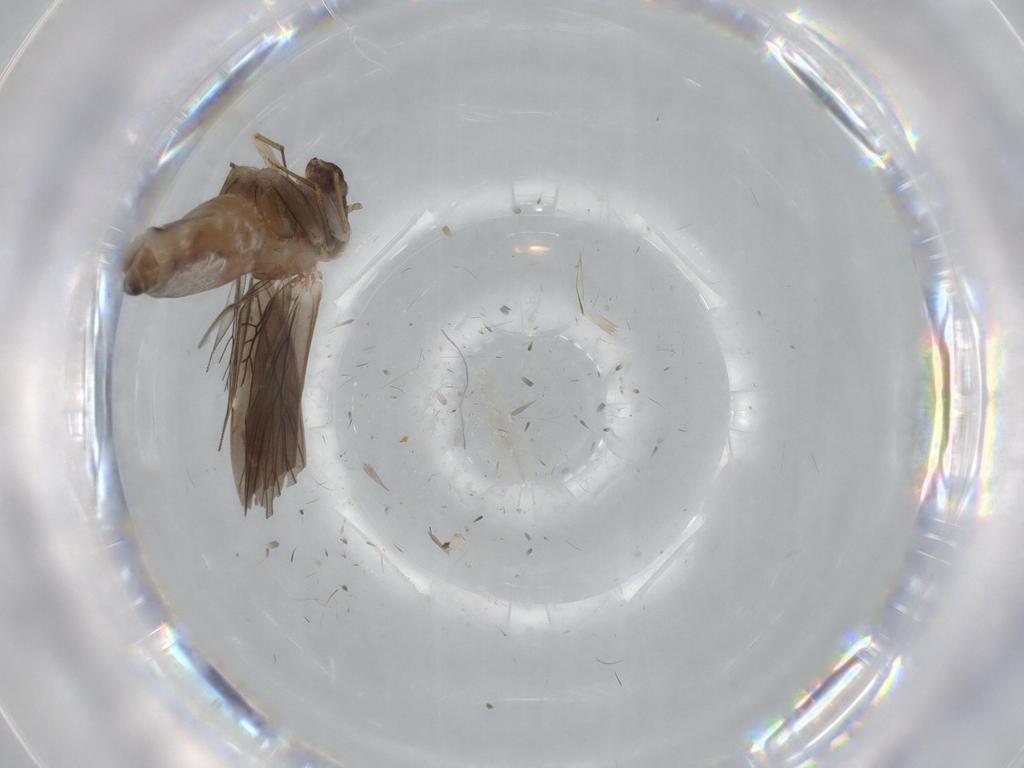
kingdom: Animalia
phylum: Arthropoda
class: Insecta
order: Psocodea
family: Lepidopsocidae
